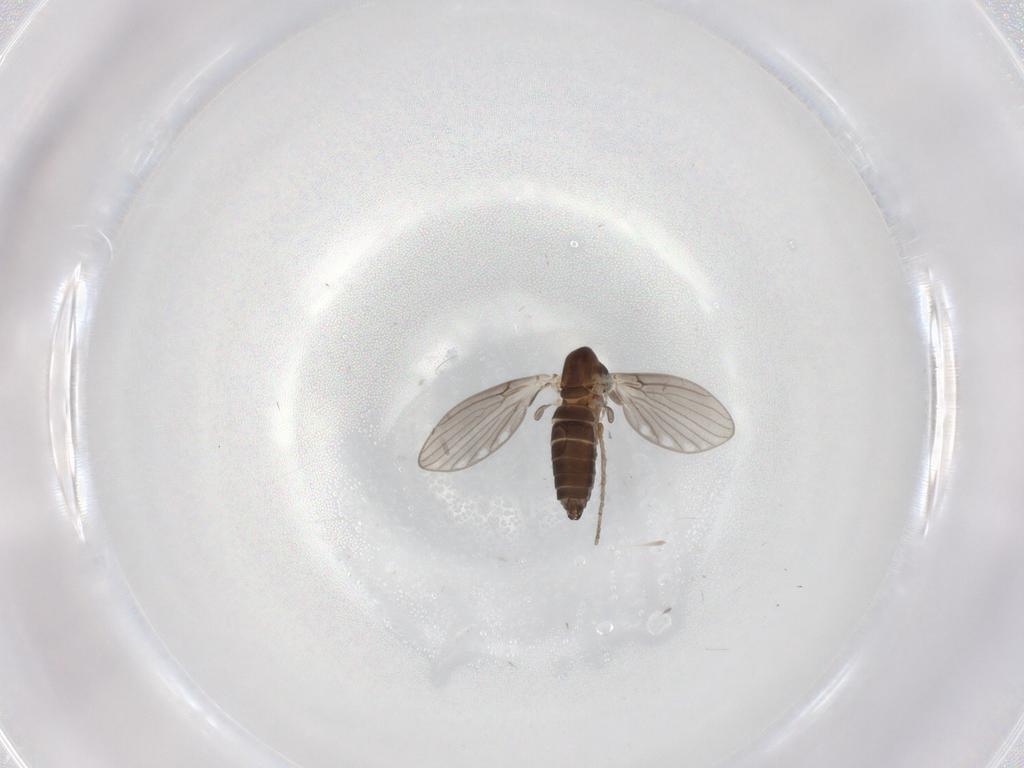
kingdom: Animalia
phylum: Arthropoda
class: Insecta
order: Diptera
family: Psychodidae
